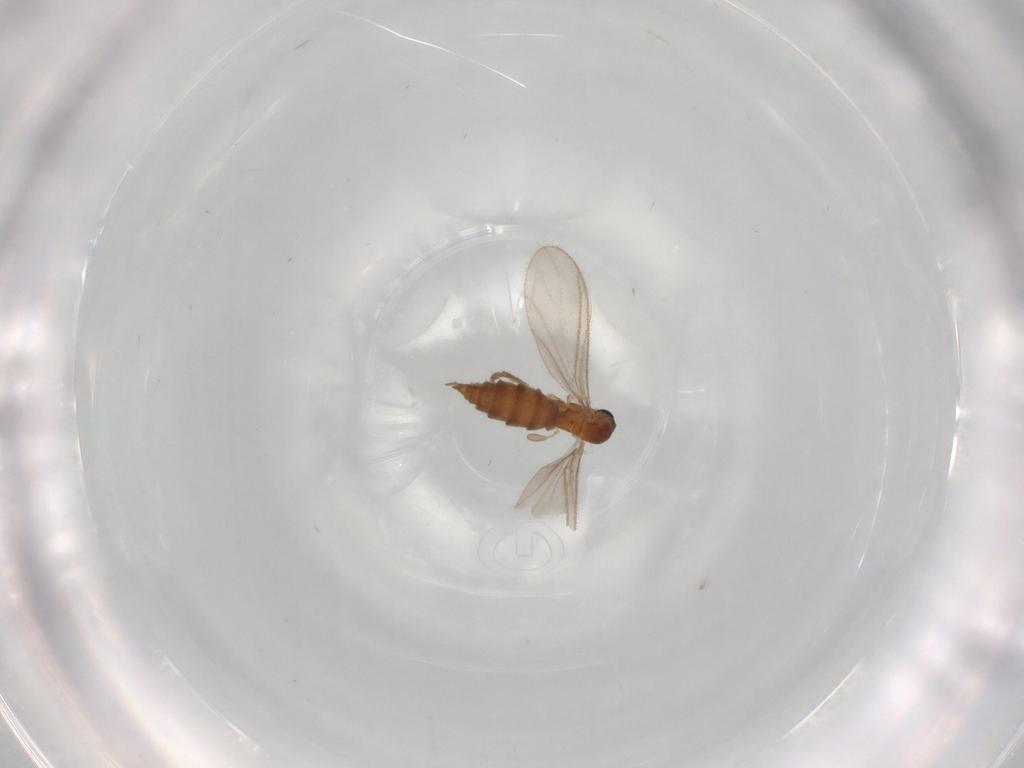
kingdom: Animalia
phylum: Arthropoda
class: Insecta
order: Diptera
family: Sciaridae
